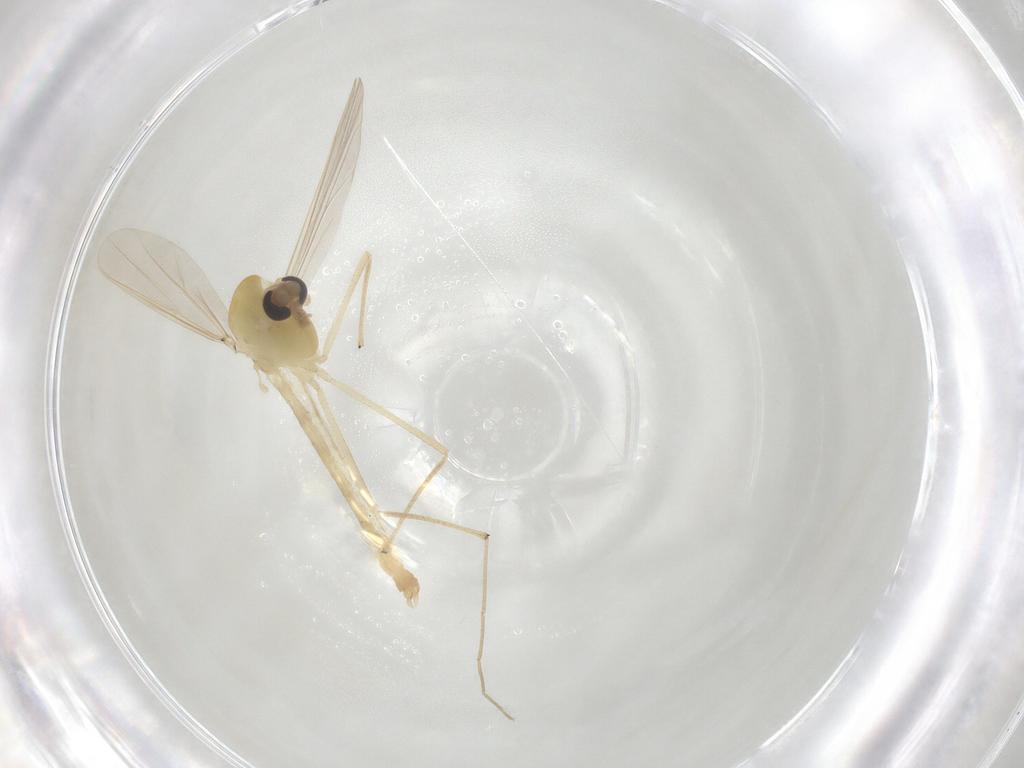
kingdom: Animalia
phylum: Arthropoda
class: Insecta
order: Diptera
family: Chironomidae
